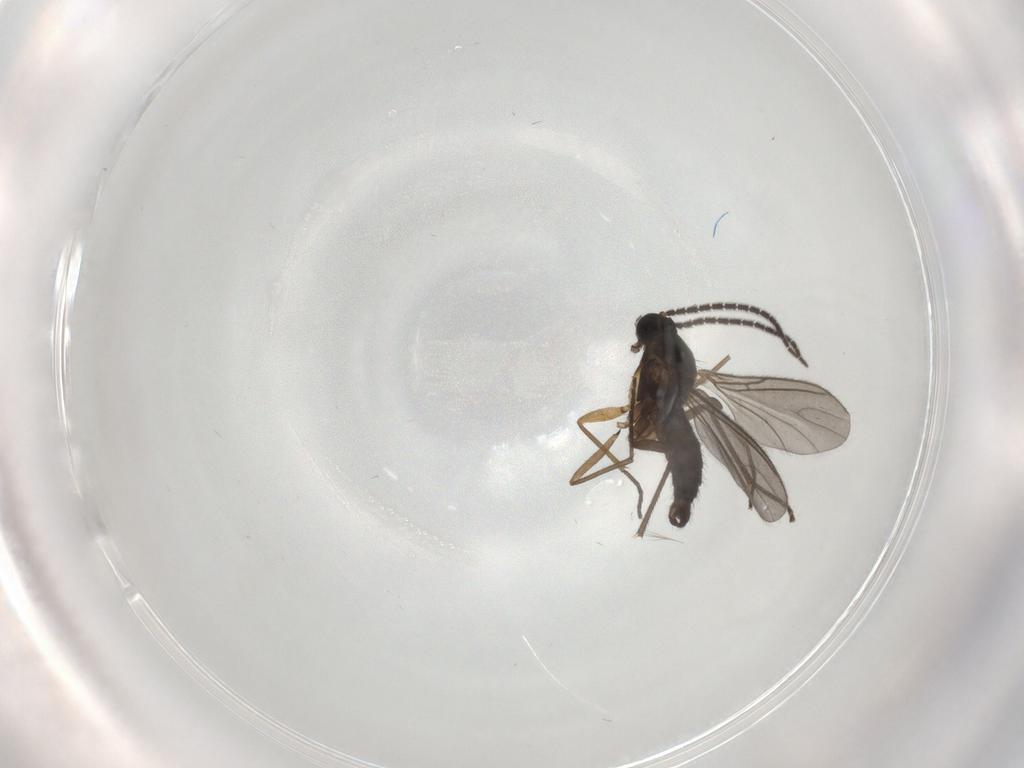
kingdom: Animalia
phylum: Arthropoda
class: Insecta
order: Diptera
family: Sciaridae
